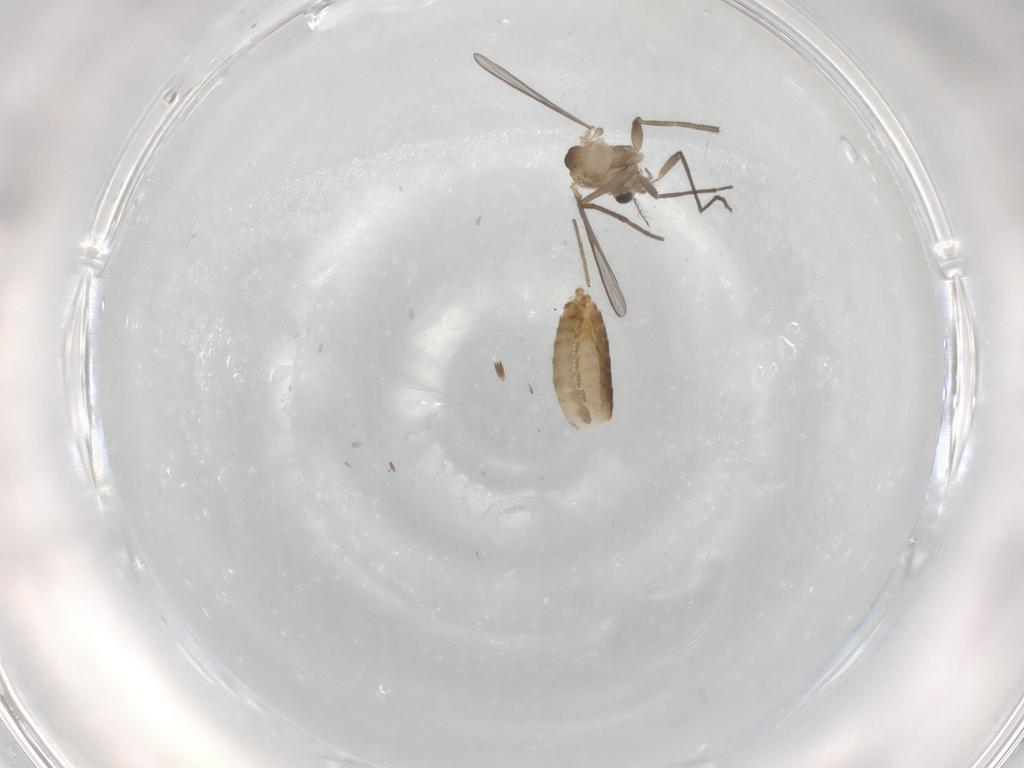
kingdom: Animalia
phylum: Arthropoda
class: Insecta
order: Diptera
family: Chironomidae
